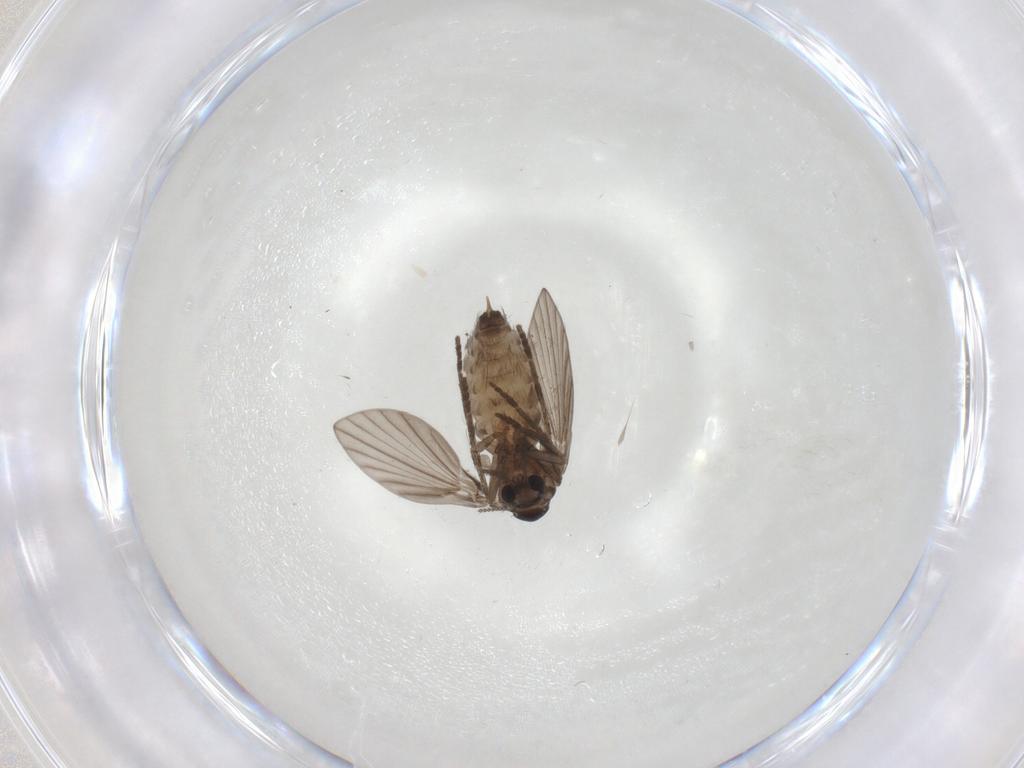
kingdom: Animalia
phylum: Arthropoda
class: Insecta
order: Diptera
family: Psychodidae
